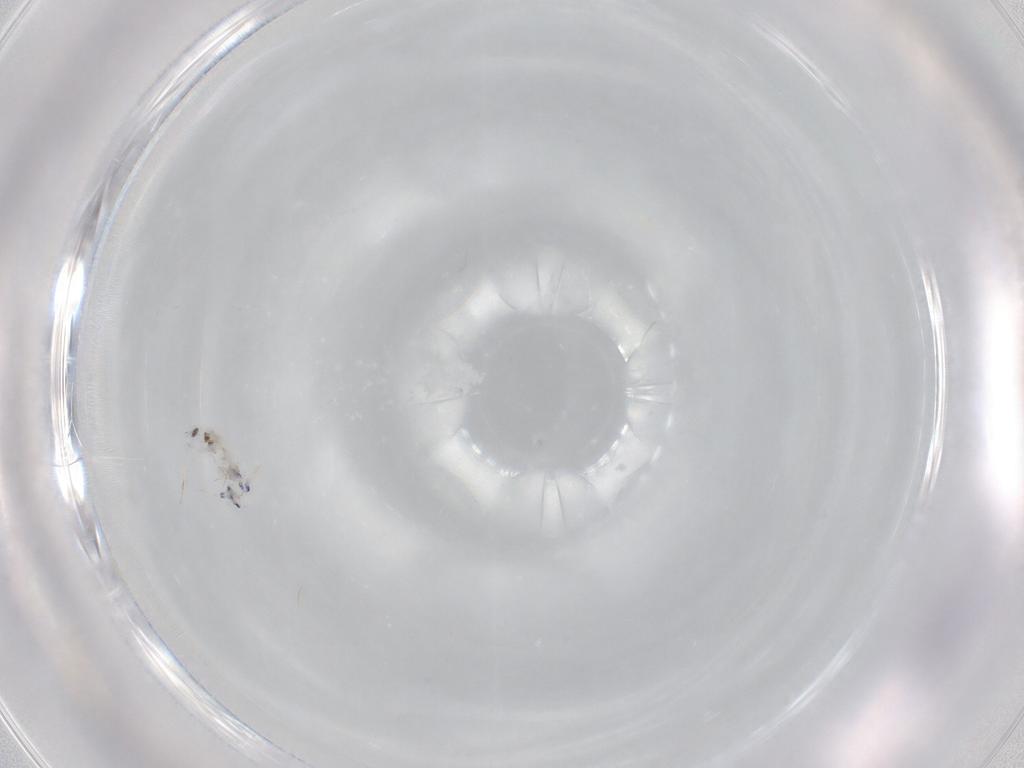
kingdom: Animalia
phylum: Arthropoda
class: Collembola
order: Entomobryomorpha
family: Entomobryidae
